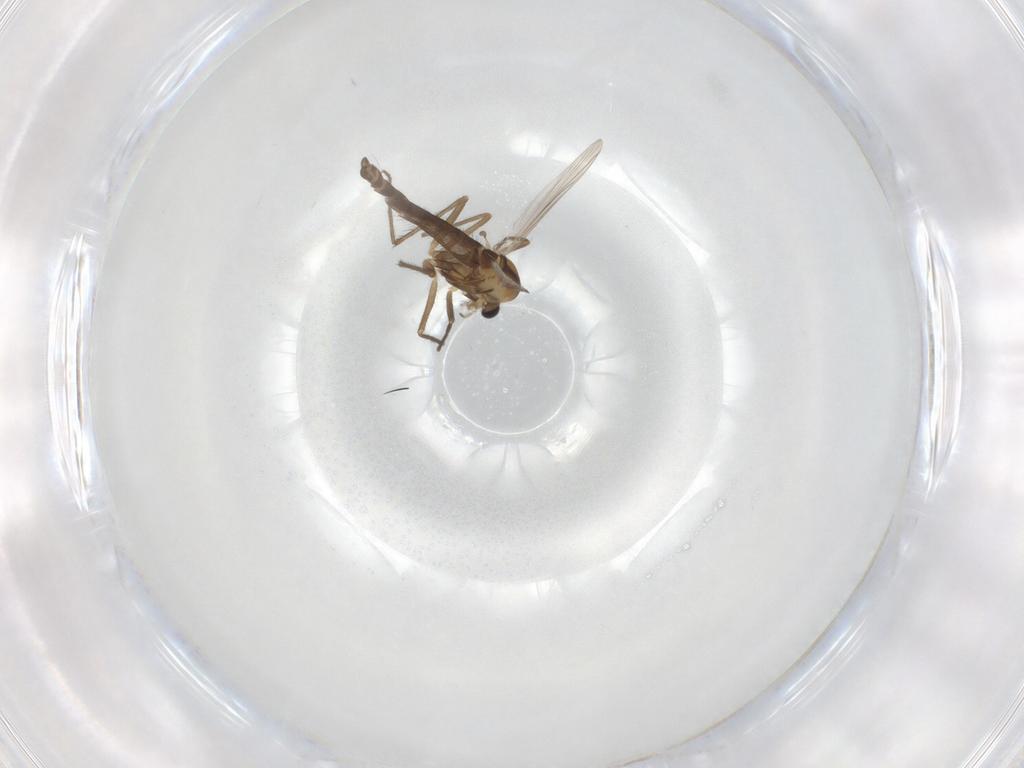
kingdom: Animalia
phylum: Arthropoda
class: Insecta
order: Diptera
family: Chironomidae
